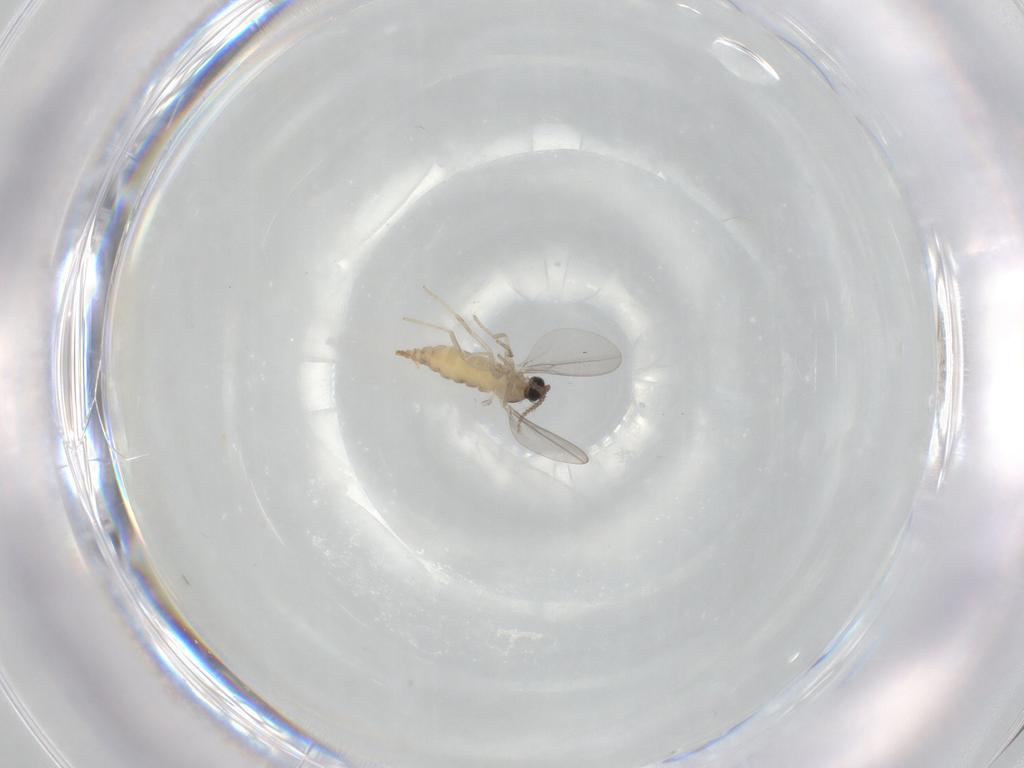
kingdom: Animalia
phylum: Arthropoda
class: Insecta
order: Diptera
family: Cecidomyiidae
